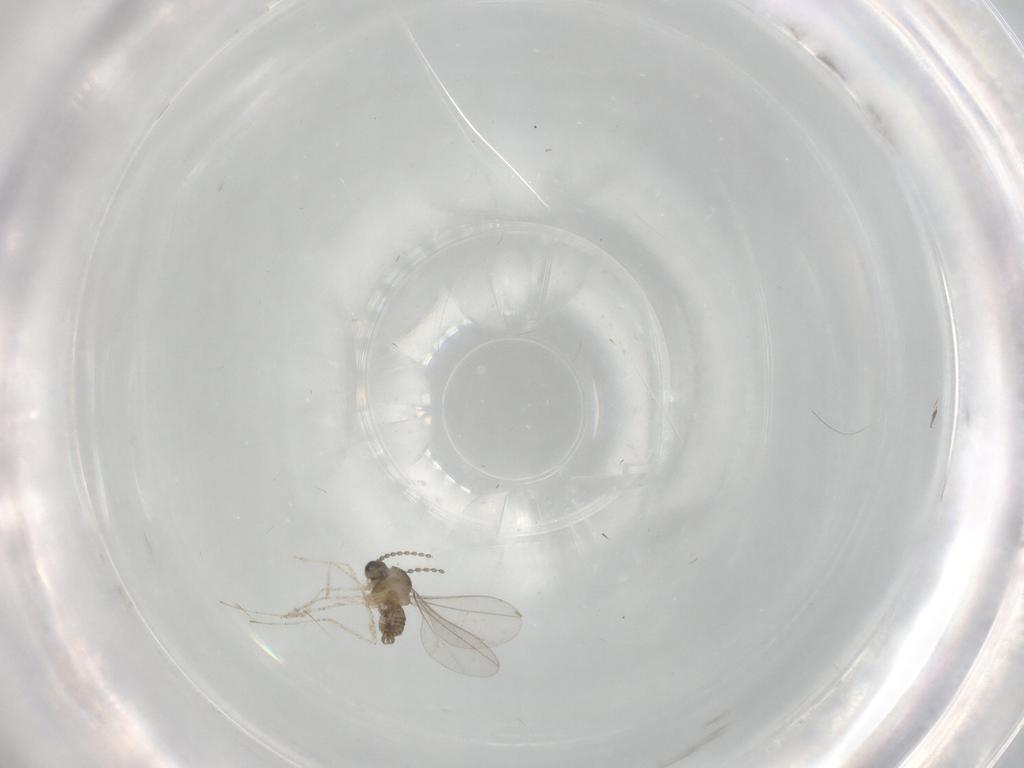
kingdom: Animalia
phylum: Arthropoda
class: Insecta
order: Diptera
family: Cecidomyiidae
